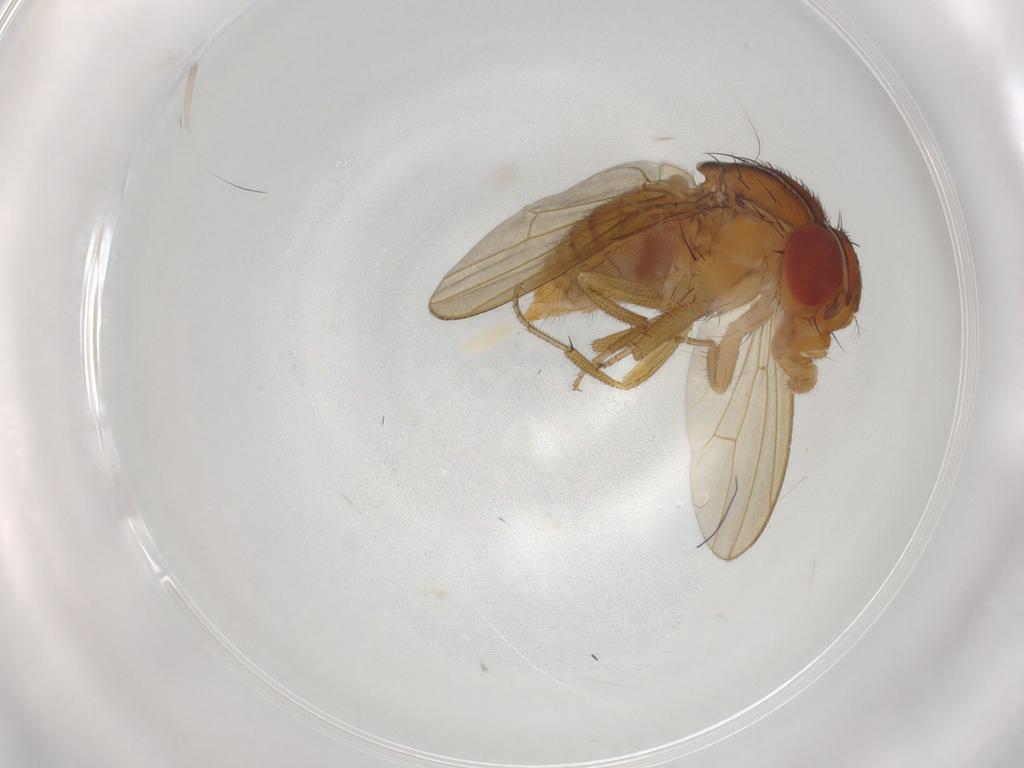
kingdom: Animalia
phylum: Arthropoda
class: Insecta
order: Diptera
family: Drosophilidae
